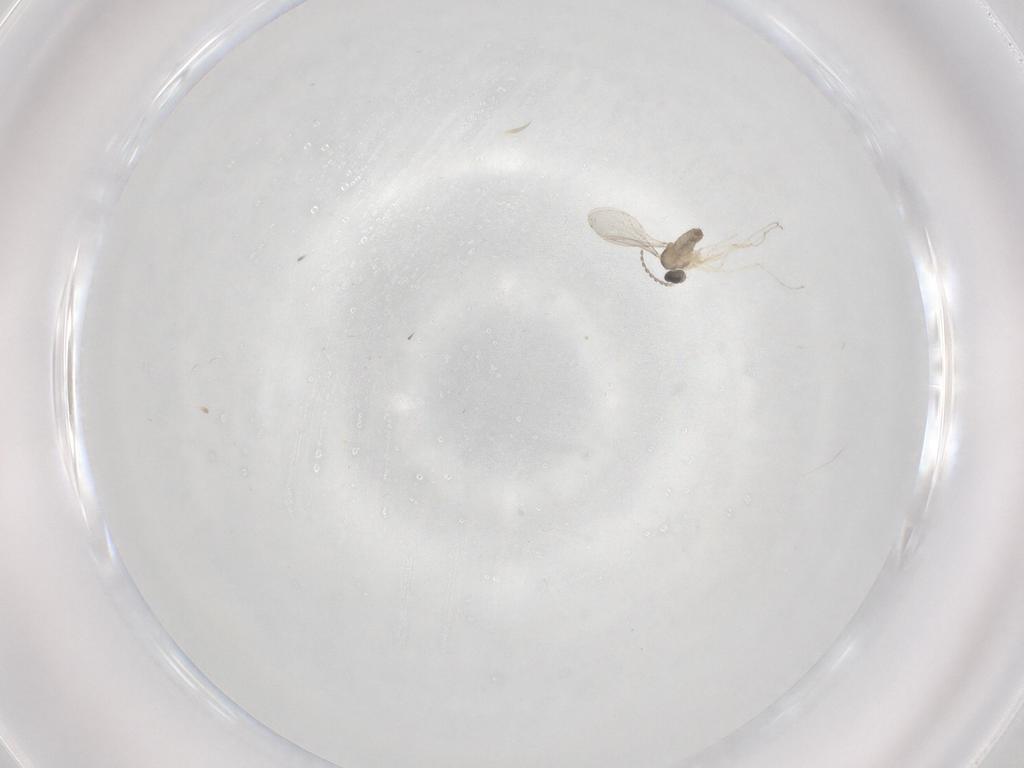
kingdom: Animalia
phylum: Arthropoda
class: Insecta
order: Diptera
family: Cecidomyiidae
